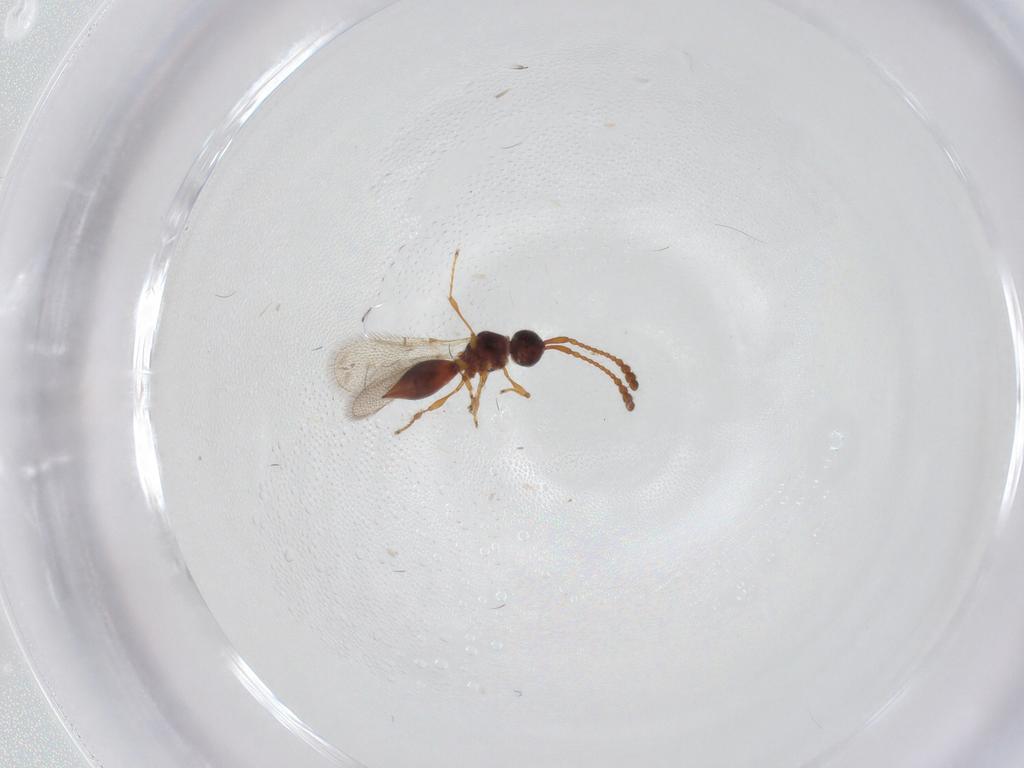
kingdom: Animalia
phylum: Arthropoda
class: Insecta
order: Hymenoptera
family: Diapriidae
